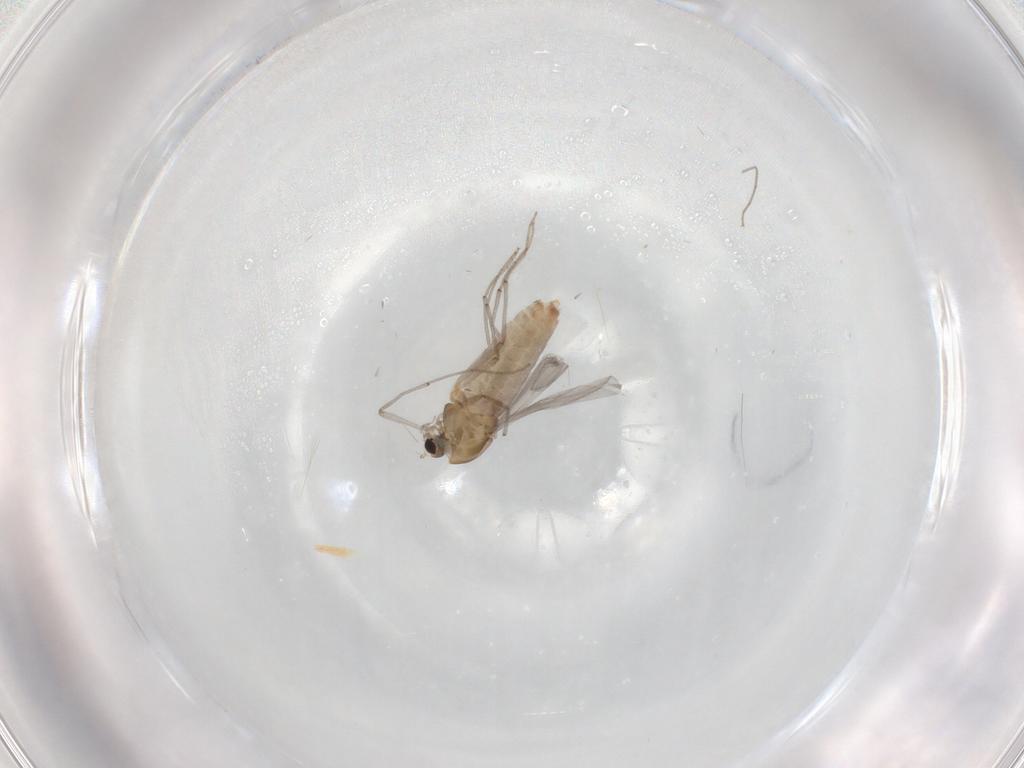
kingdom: Animalia
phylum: Arthropoda
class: Insecta
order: Diptera
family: Chironomidae
